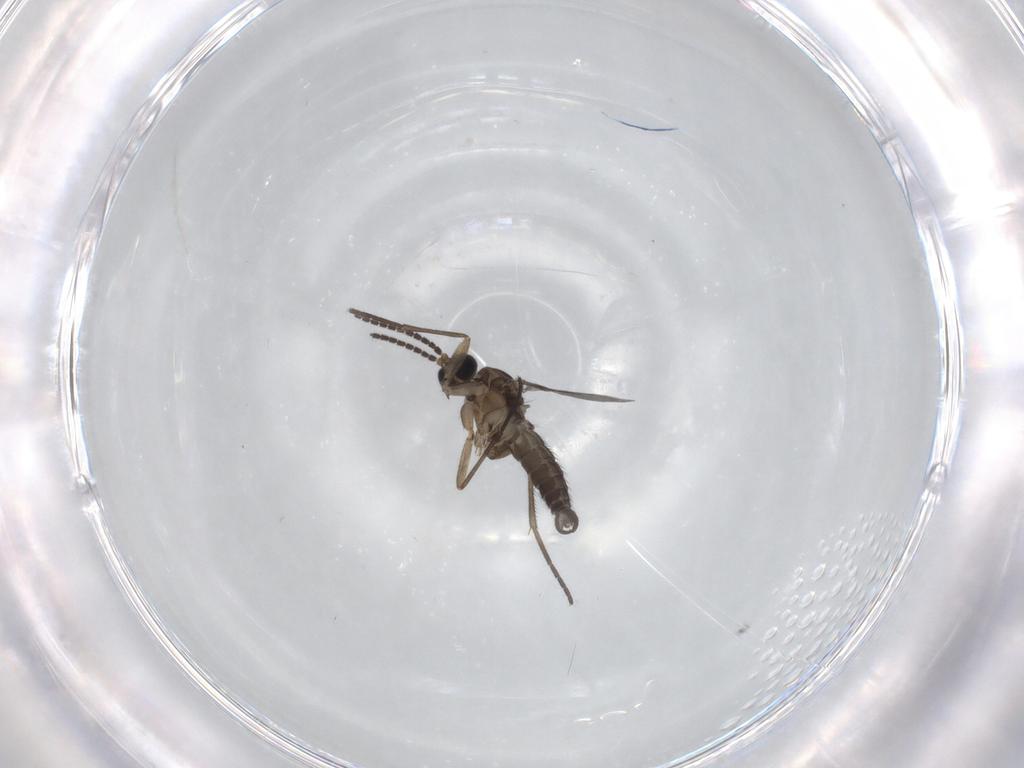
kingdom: Animalia
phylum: Arthropoda
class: Insecta
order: Diptera
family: Sciaridae
